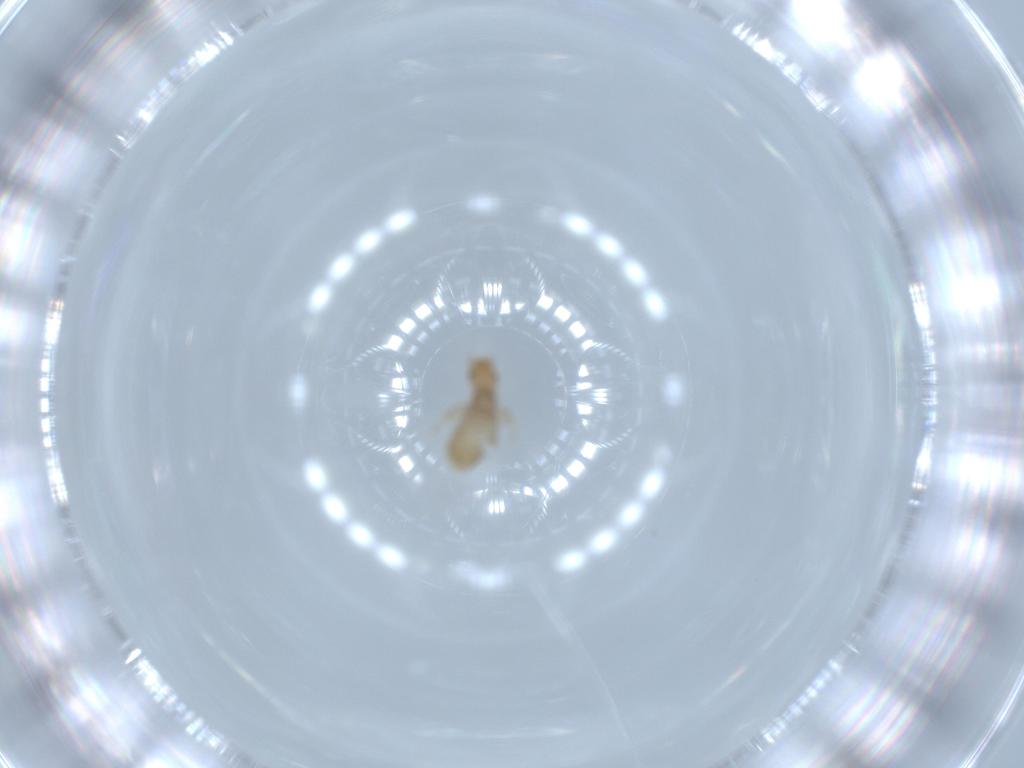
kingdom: Animalia
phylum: Arthropoda
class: Insecta
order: Psocodea
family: Liposcelididae
